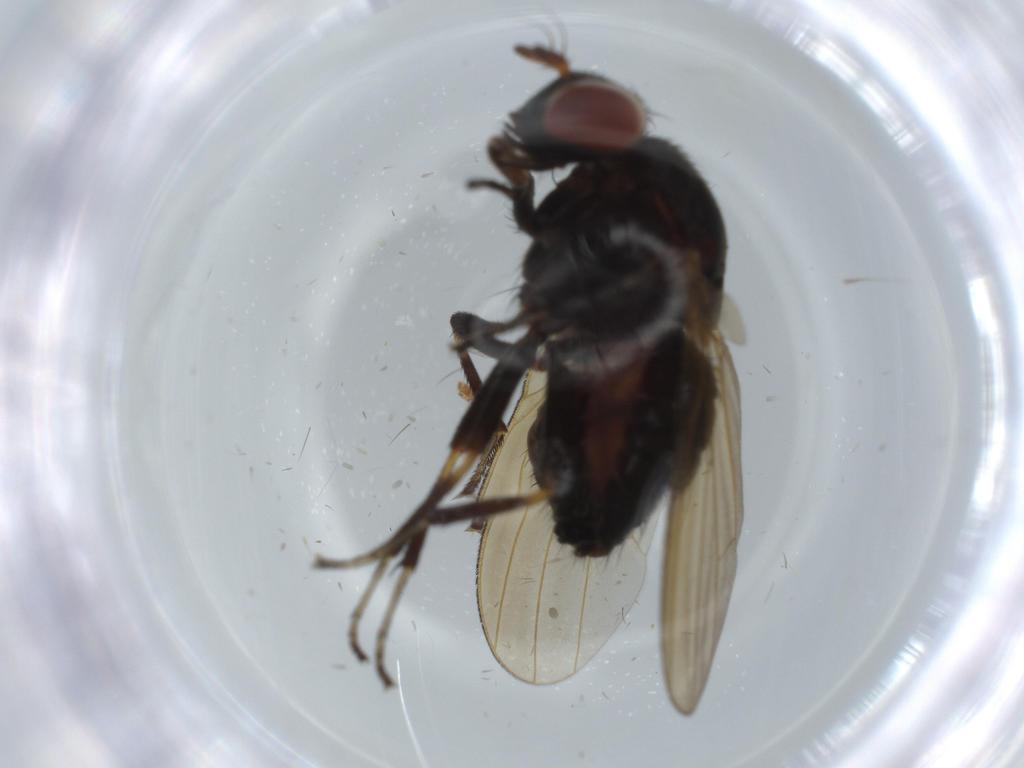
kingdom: Animalia
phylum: Arthropoda
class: Insecta
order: Diptera
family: Lauxaniidae
